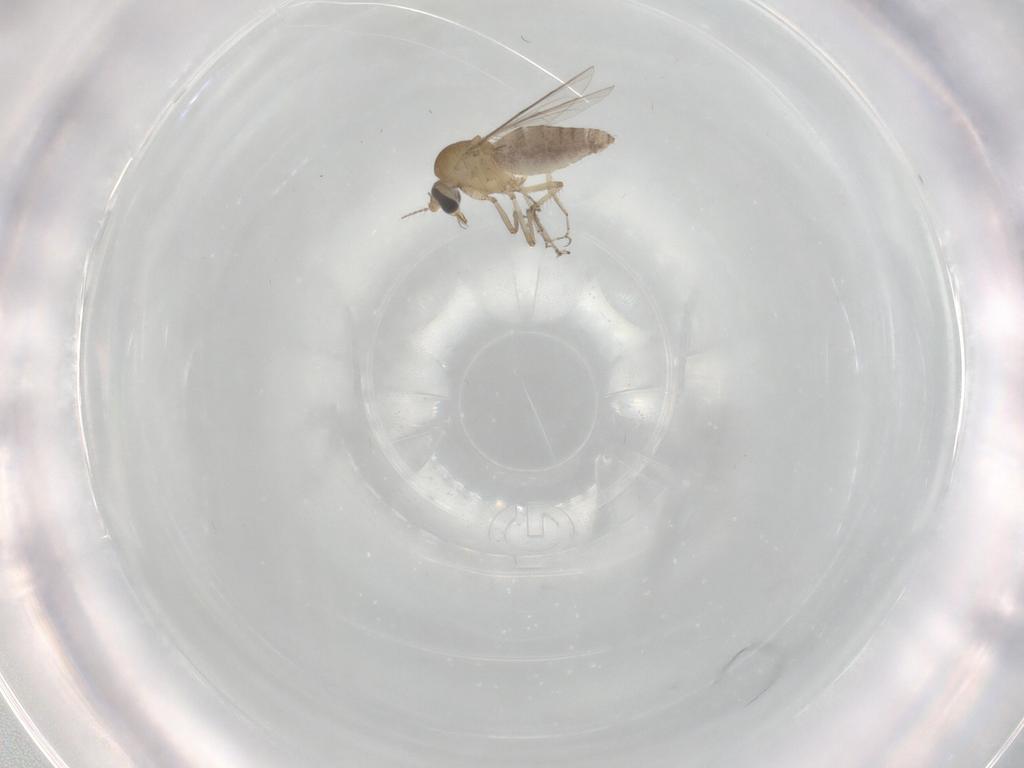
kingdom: Animalia
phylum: Arthropoda
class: Insecta
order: Diptera
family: Ceratopogonidae
